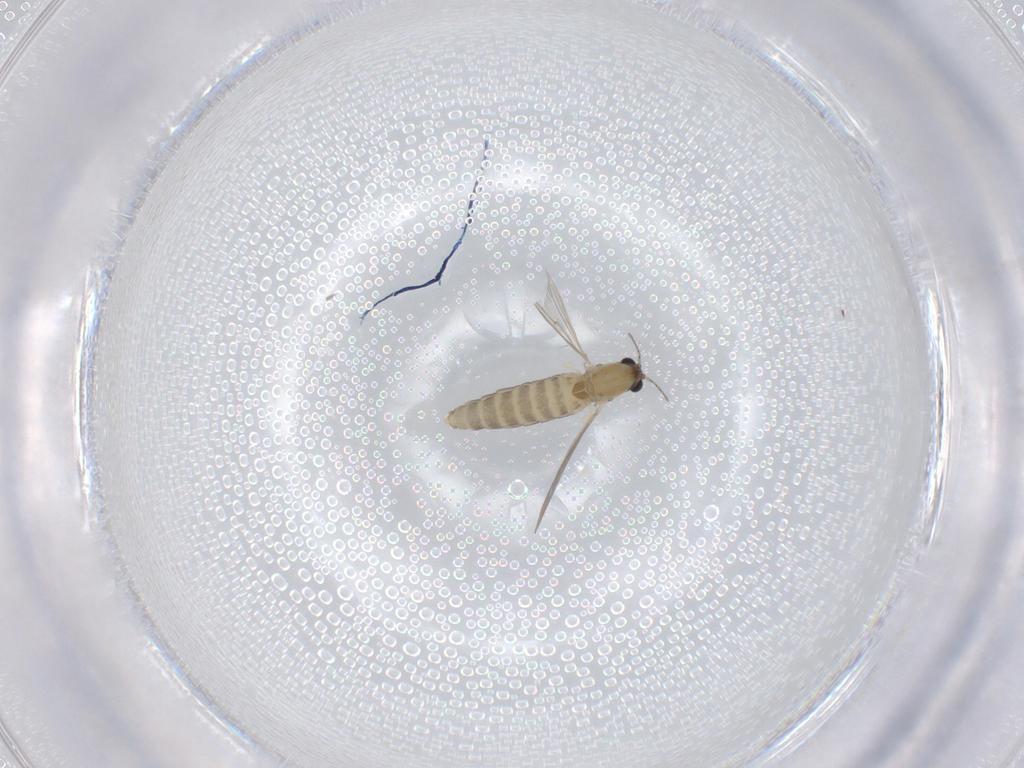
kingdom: Animalia
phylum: Arthropoda
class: Insecta
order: Diptera
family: Chironomidae
